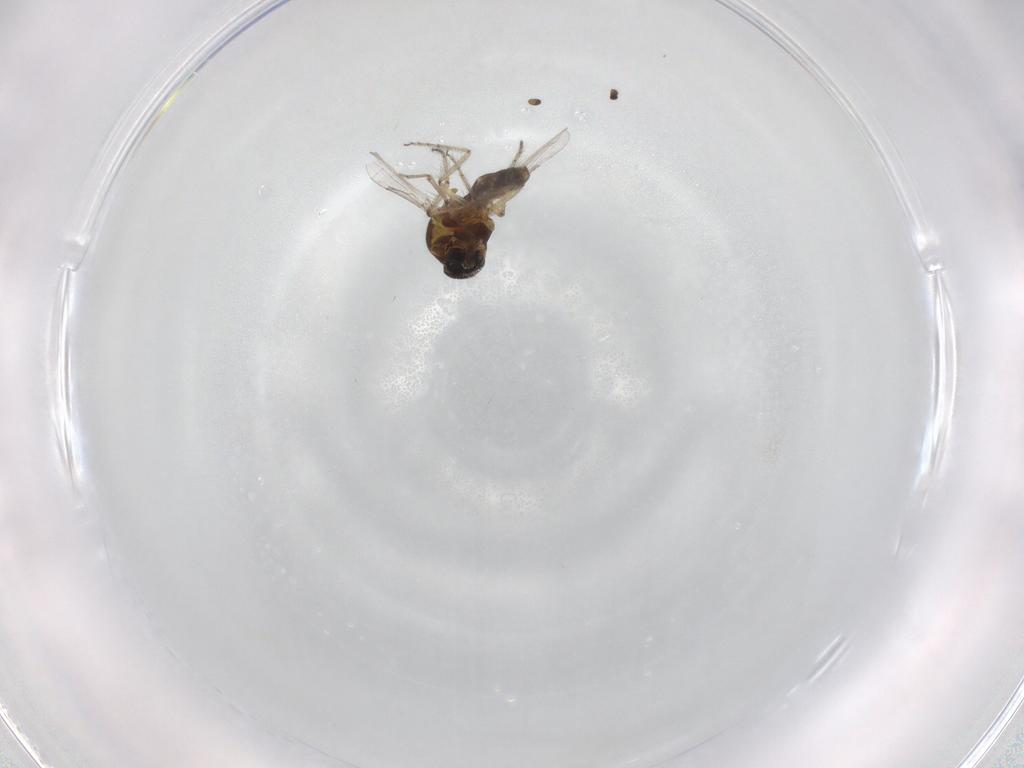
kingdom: Animalia
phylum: Arthropoda
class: Insecta
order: Diptera
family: Ceratopogonidae
